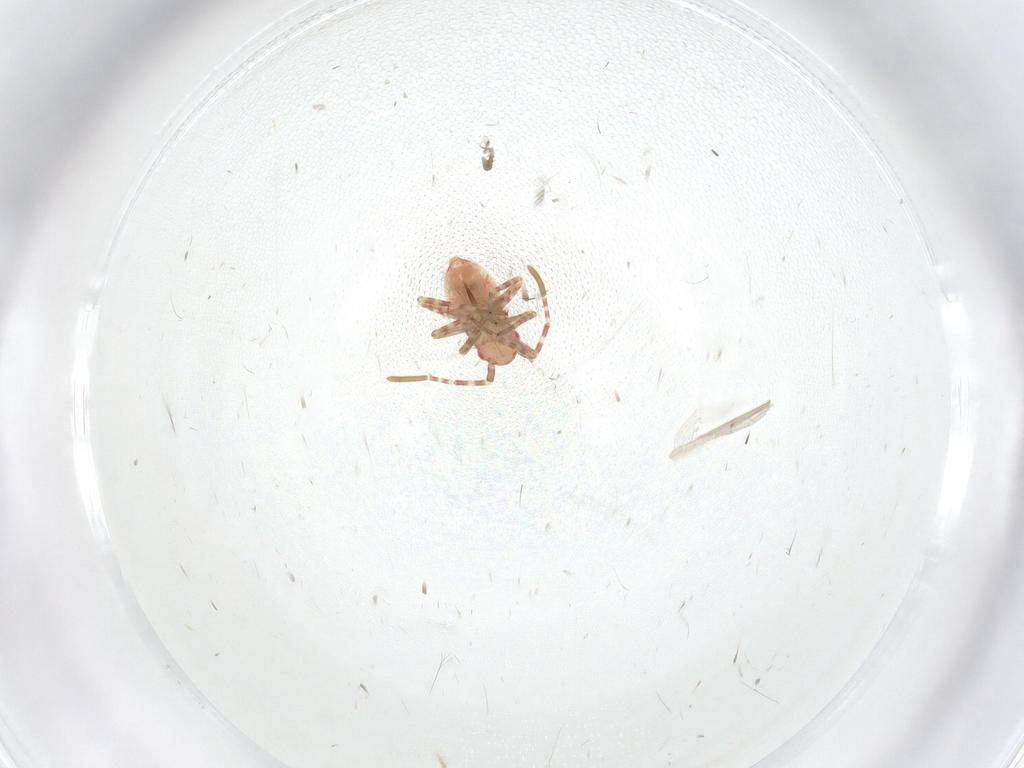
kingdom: Animalia
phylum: Arthropoda
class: Insecta
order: Hemiptera
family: Miridae
